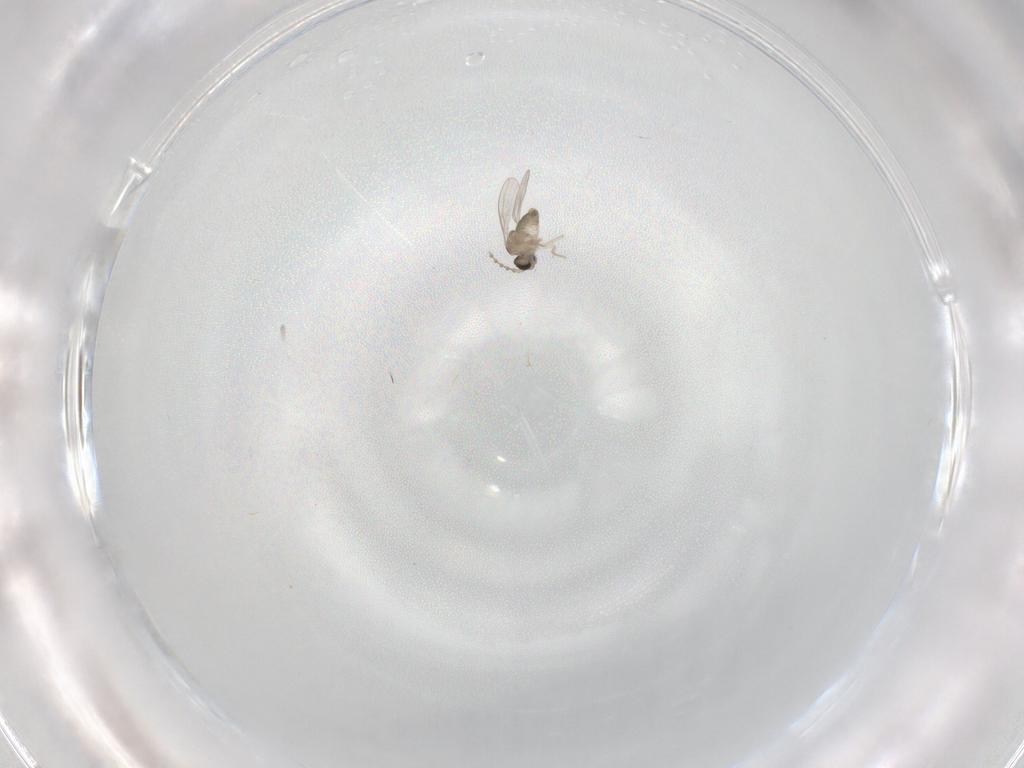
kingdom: Animalia
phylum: Arthropoda
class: Insecta
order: Diptera
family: Cecidomyiidae
